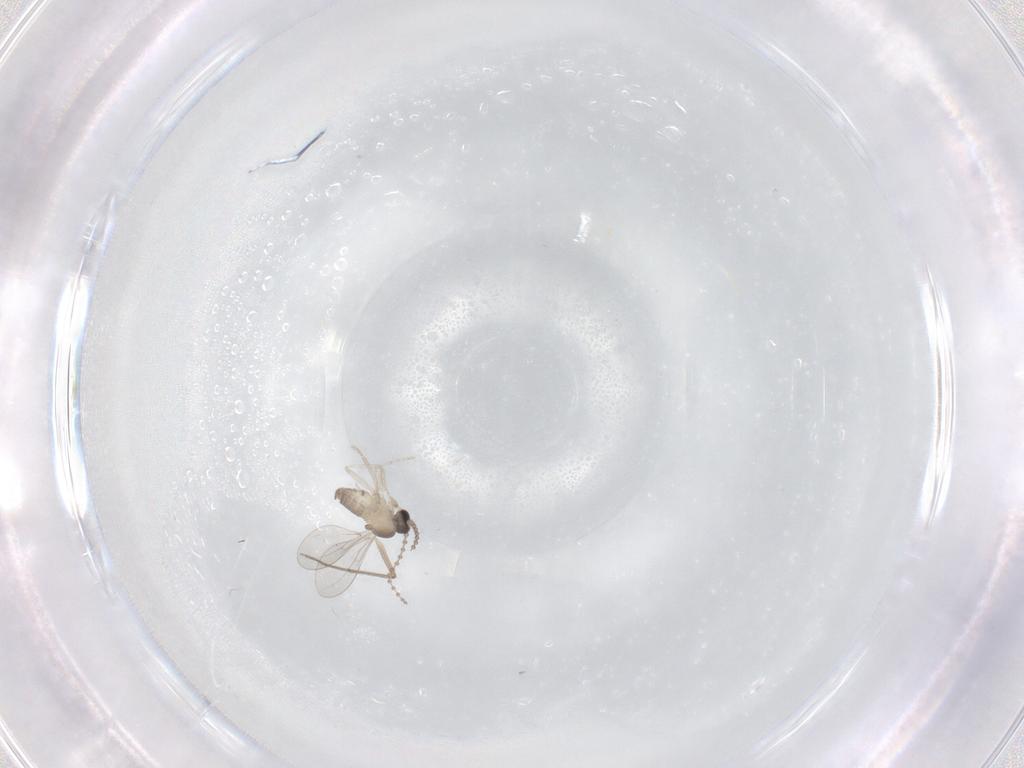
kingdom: Animalia
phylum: Arthropoda
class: Insecta
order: Diptera
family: Cecidomyiidae
